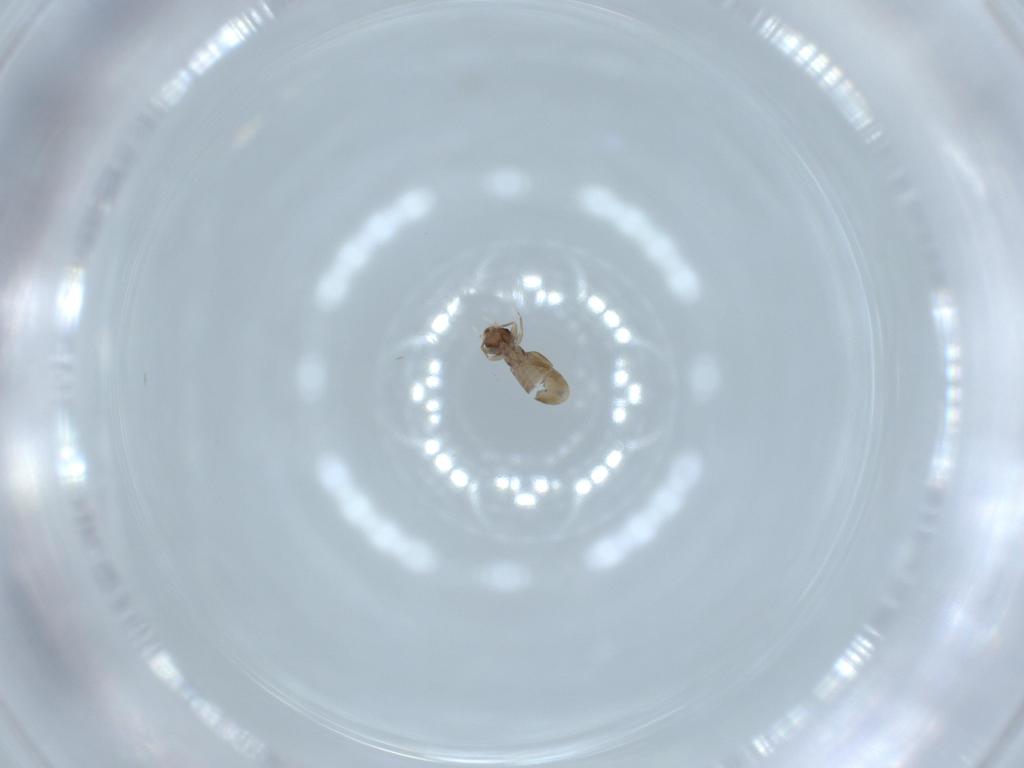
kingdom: Animalia
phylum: Arthropoda
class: Insecta
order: Psocodea
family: Liposcelididae
